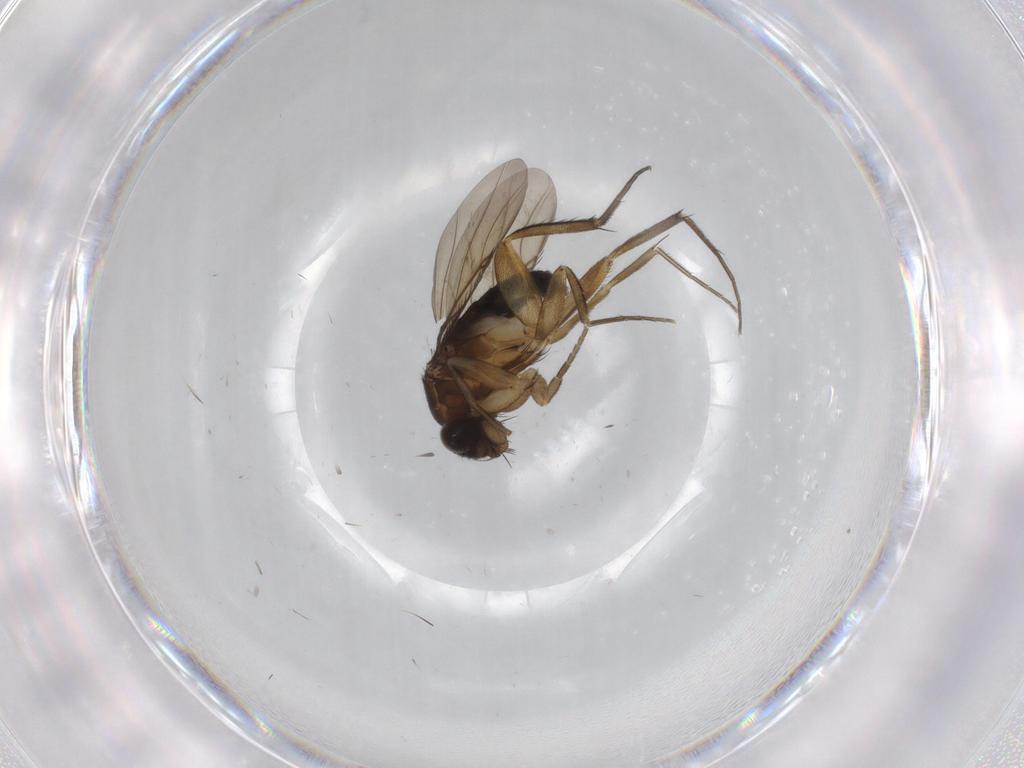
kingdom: Animalia
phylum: Arthropoda
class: Insecta
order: Diptera
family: Phoridae
